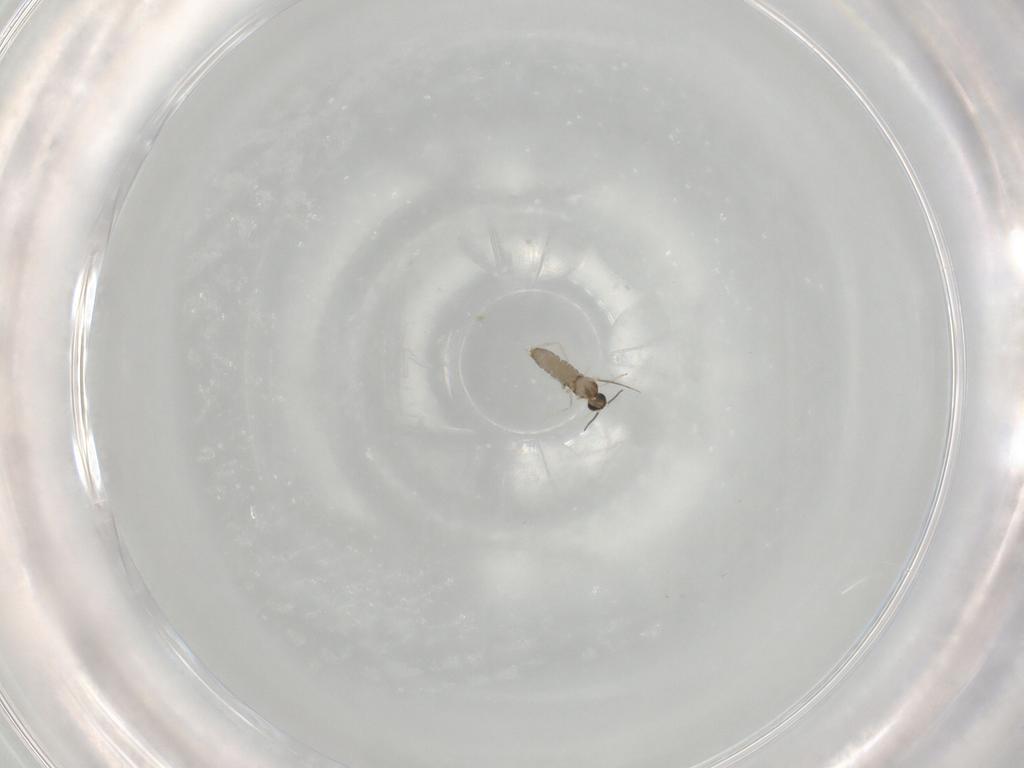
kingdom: Animalia
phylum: Arthropoda
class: Insecta
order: Diptera
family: Cecidomyiidae
